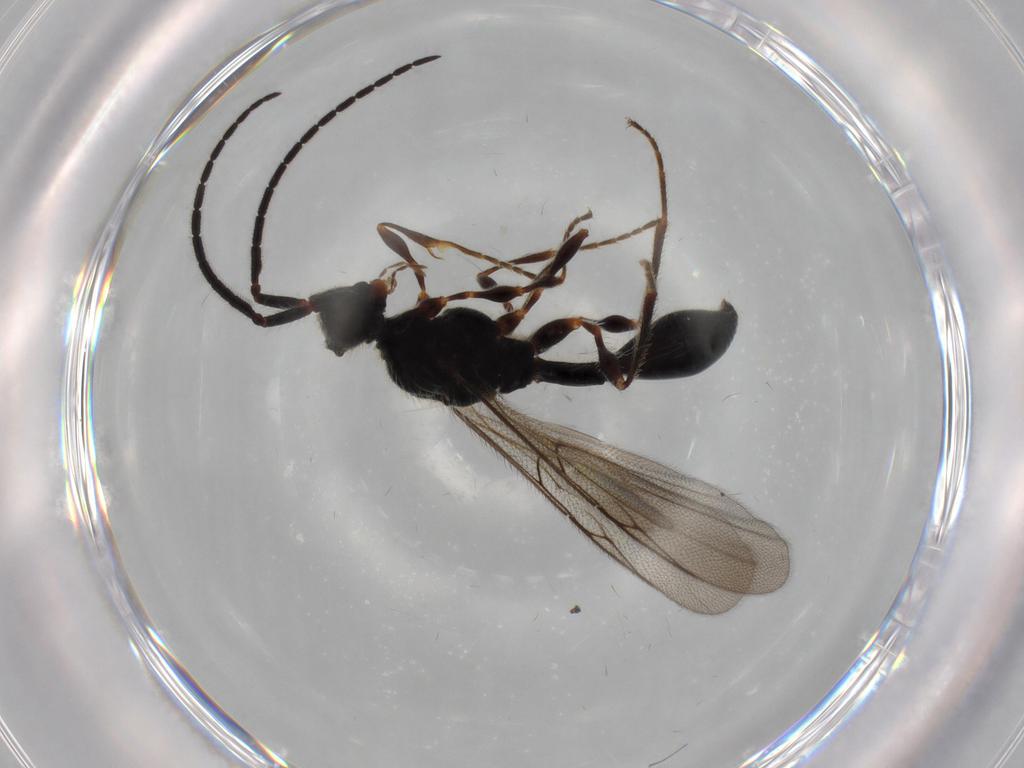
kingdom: Animalia
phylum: Arthropoda
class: Insecta
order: Hymenoptera
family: Diapriidae
